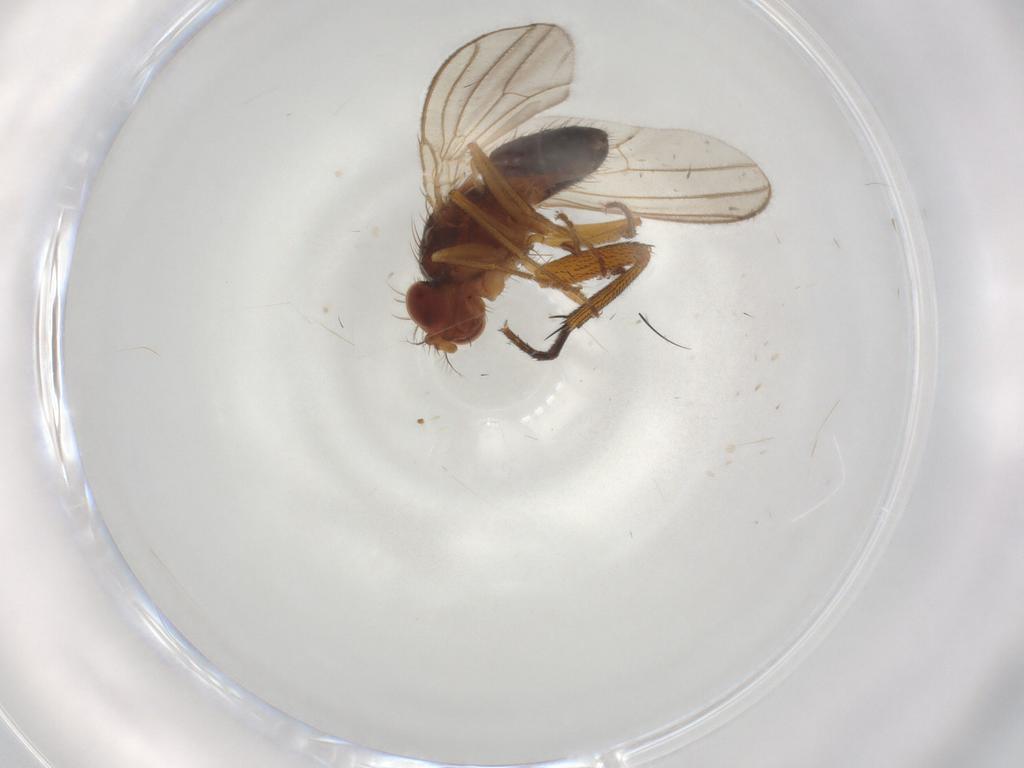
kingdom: Animalia
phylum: Arthropoda
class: Insecta
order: Diptera
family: Drosophilidae
